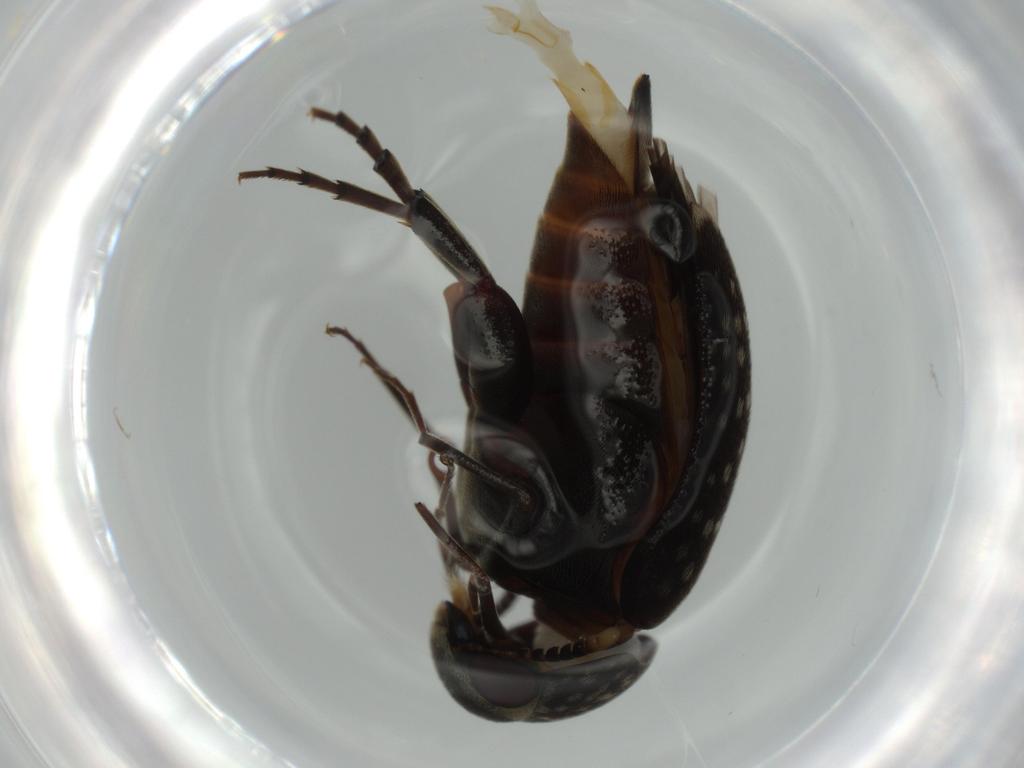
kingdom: Animalia
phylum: Arthropoda
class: Insecta
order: Coleoptera
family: Mordellidae
